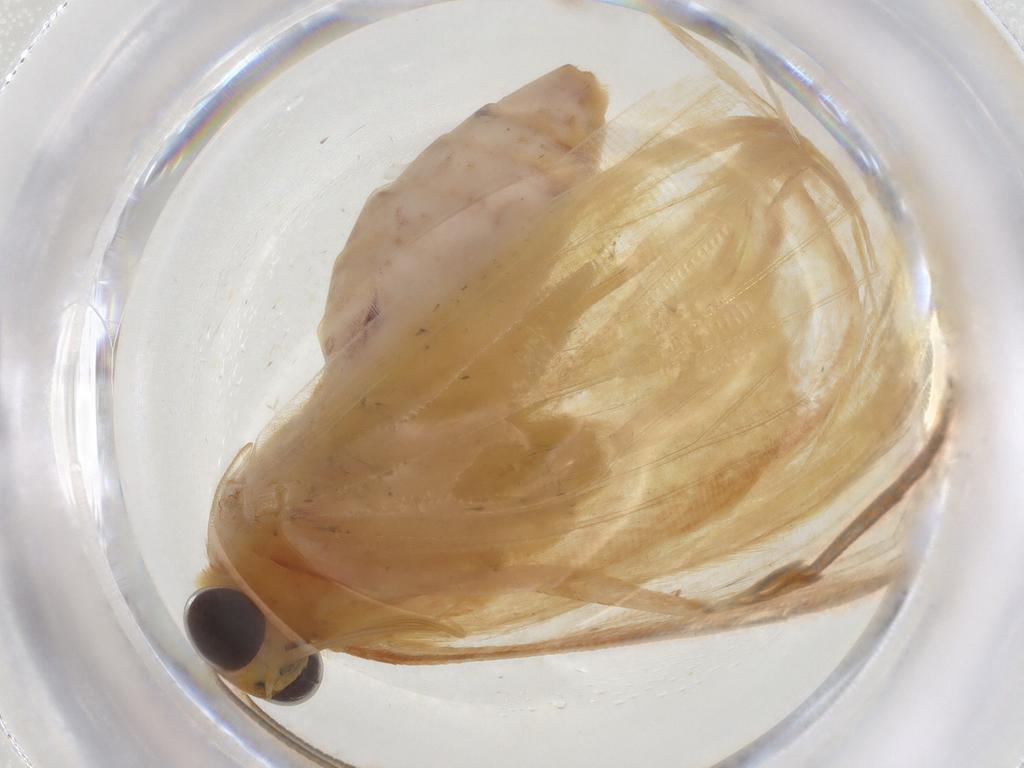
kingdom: Animalia
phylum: Arthropoda
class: Insecta
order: Lepidoptera
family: Geometridae
